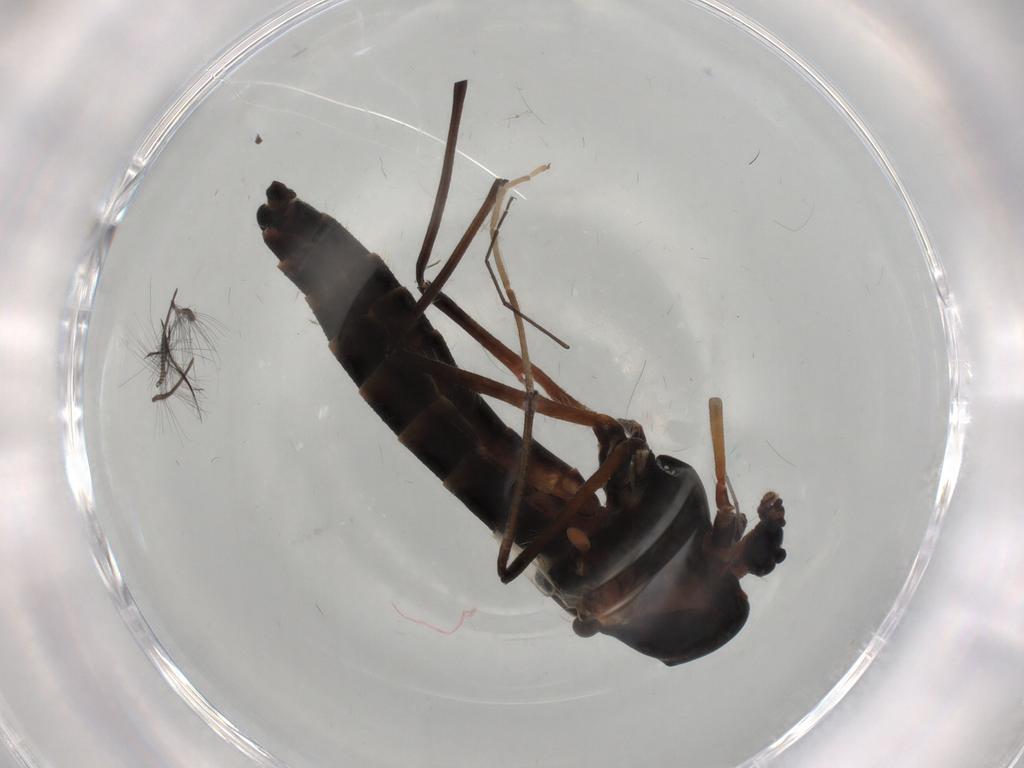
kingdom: Animalia
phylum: Arthropoda
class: Insecta
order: Diptera
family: Chironomidae
